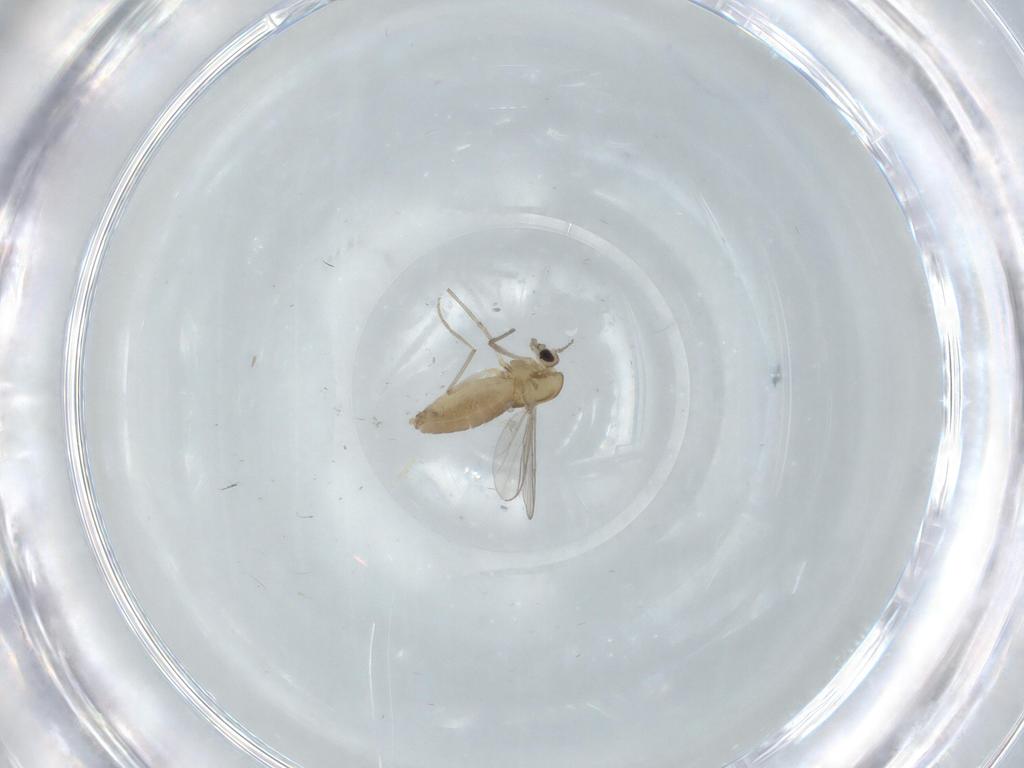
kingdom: Animalia
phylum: Arthropoda
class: Insecta
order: Diptera
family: Chironomidae
